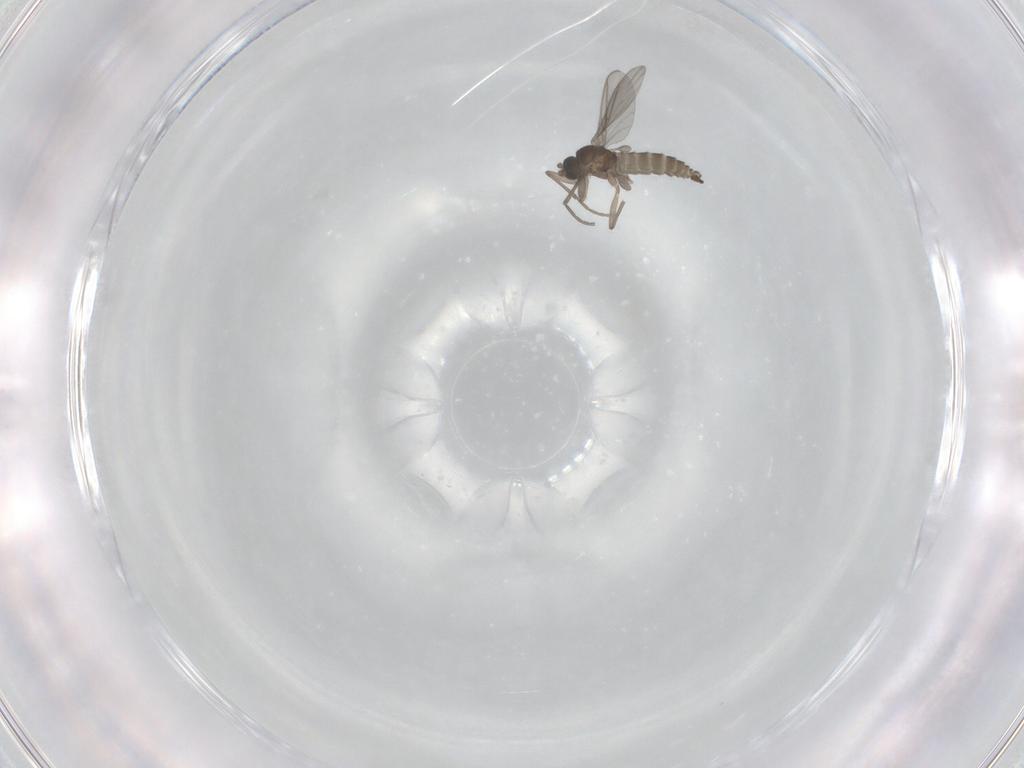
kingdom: Animalia
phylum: Arthropoda
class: Insecta
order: Diptera
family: Sciaridae
